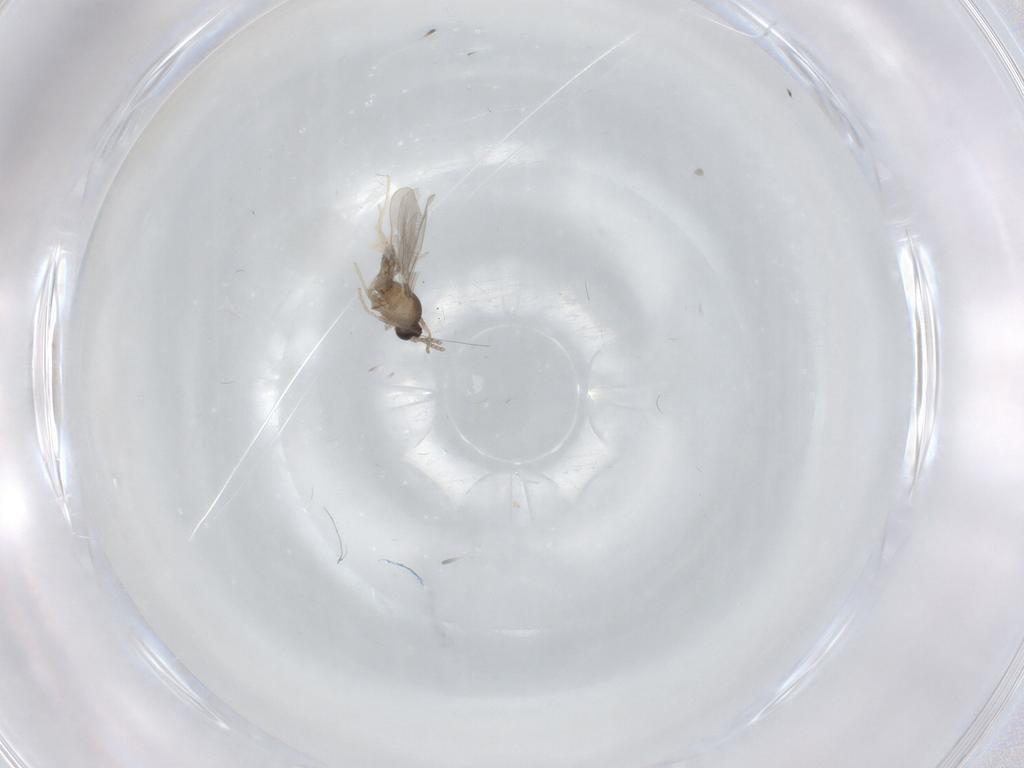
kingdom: Animalia
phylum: Arthropoda
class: Insecta
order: Diptera
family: Cecidomyiidae
